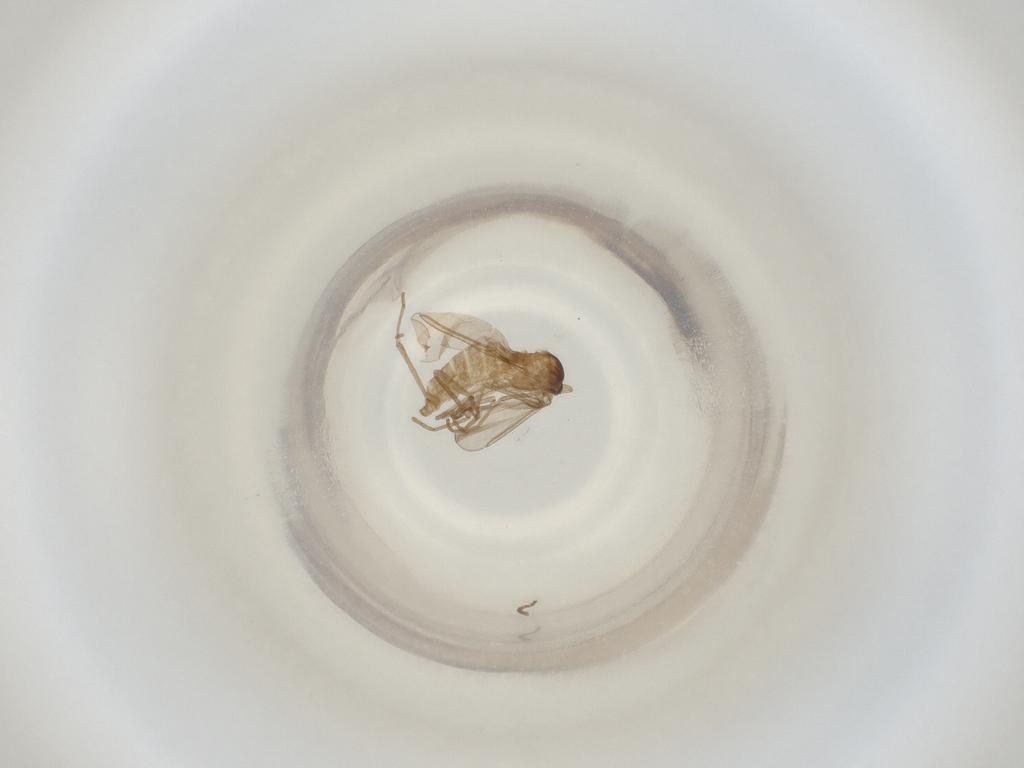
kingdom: Animalia
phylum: Arthropoda
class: Insecta
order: Diptera
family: Cecidomyiidae
